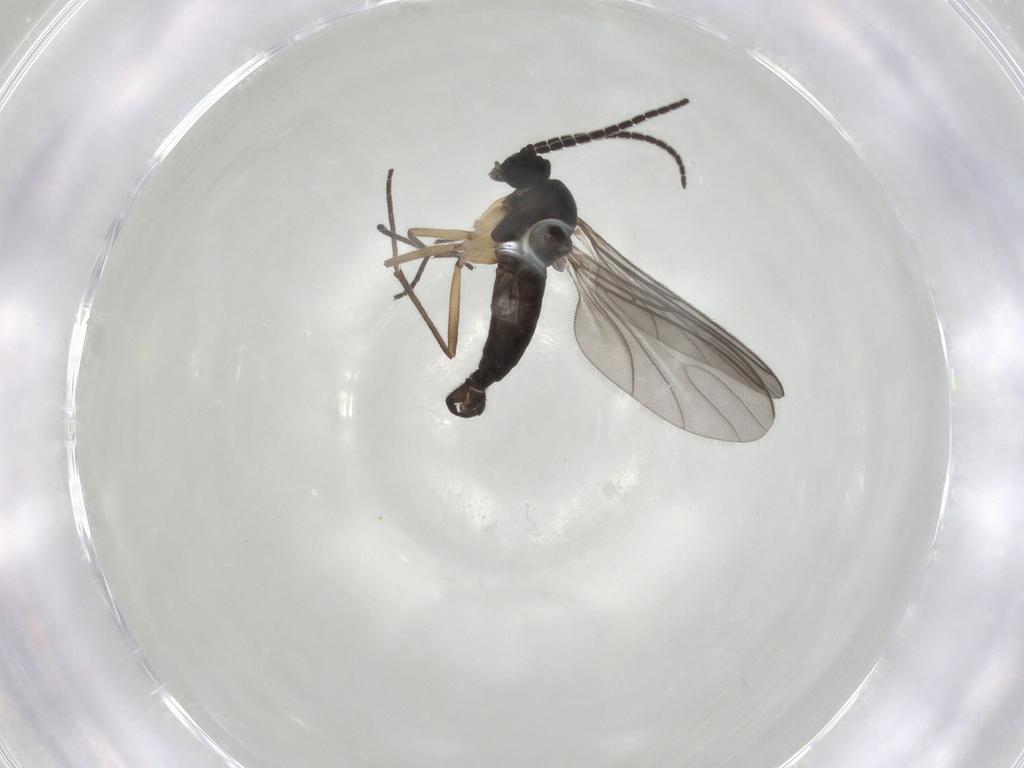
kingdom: Animalia
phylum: Arthropoda
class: Insecta
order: Diptera
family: Sciaridae
